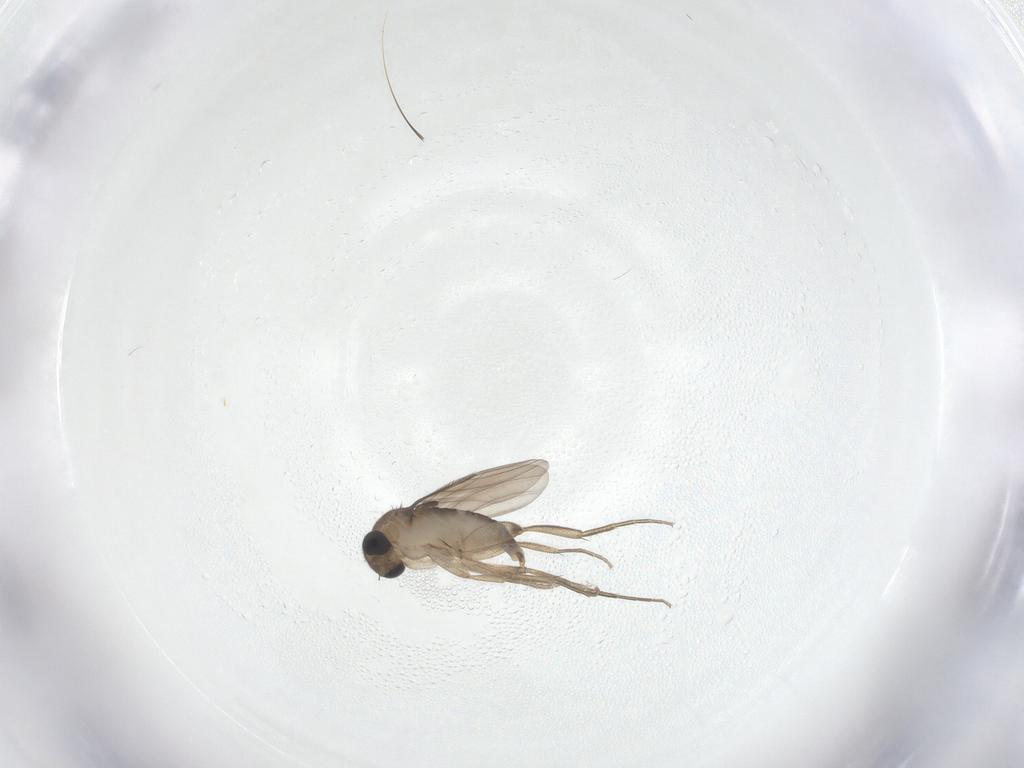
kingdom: Animalia
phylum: Arthropoda
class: Insecta
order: Diptera
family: Phoridae
